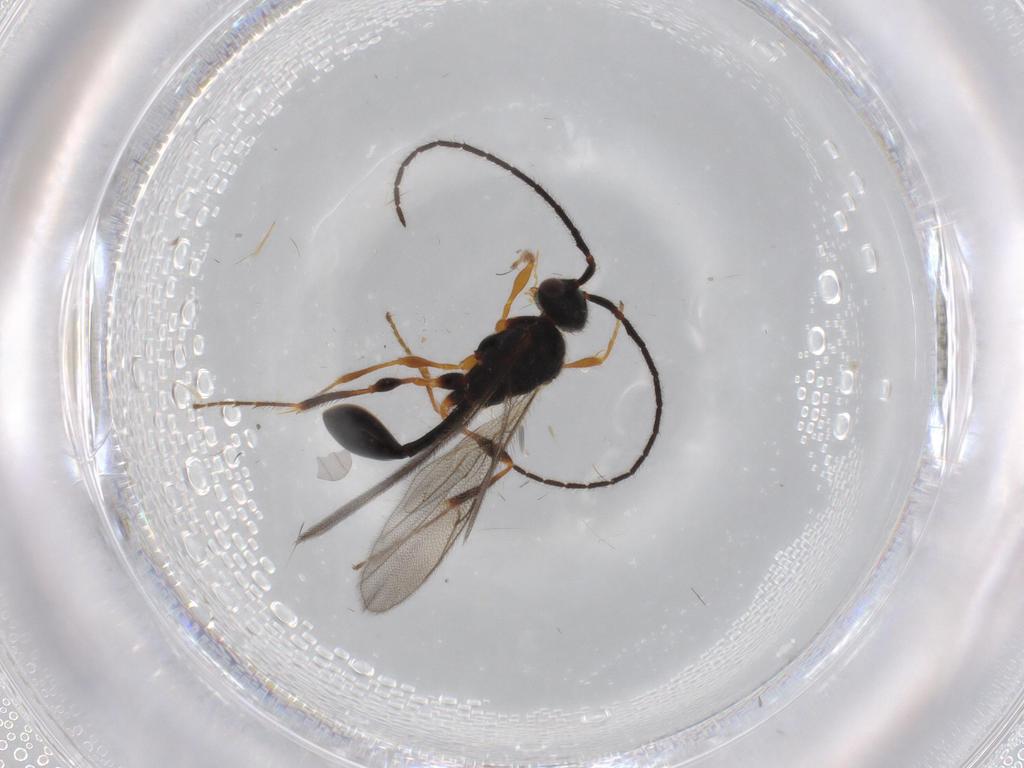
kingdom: Animalia
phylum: Arthropoda
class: Insecta
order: Hymenoptera
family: Diapriidae
